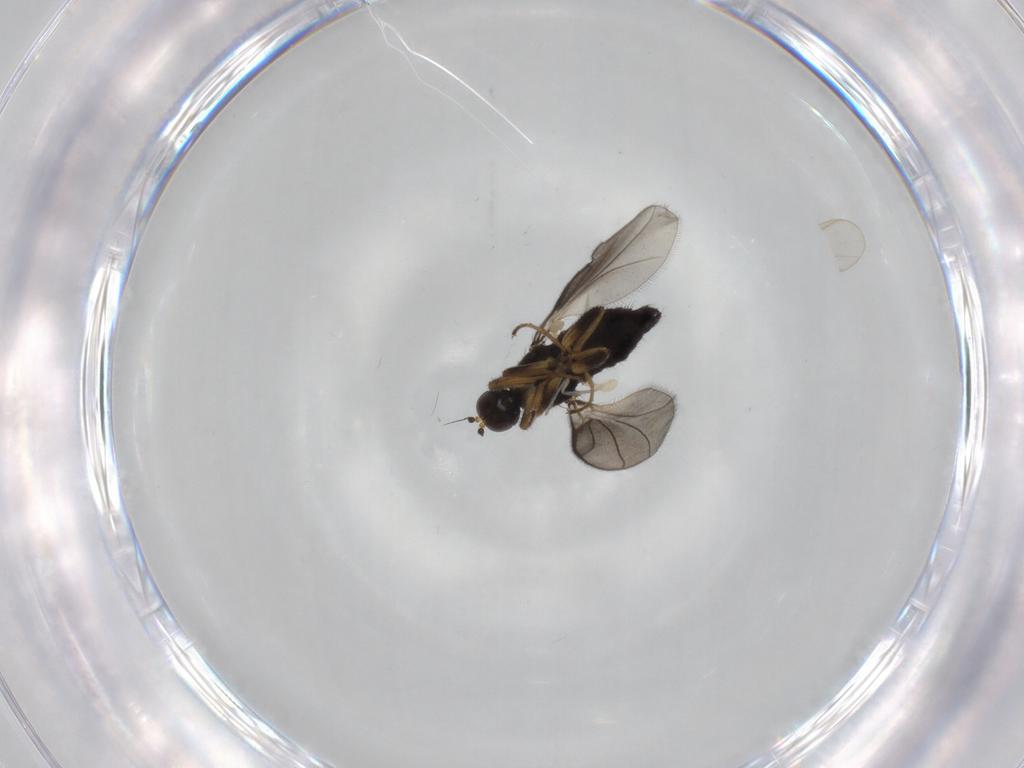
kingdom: Animalia
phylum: Arthropoda
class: Insecta
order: Diptera
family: Hybotidae
